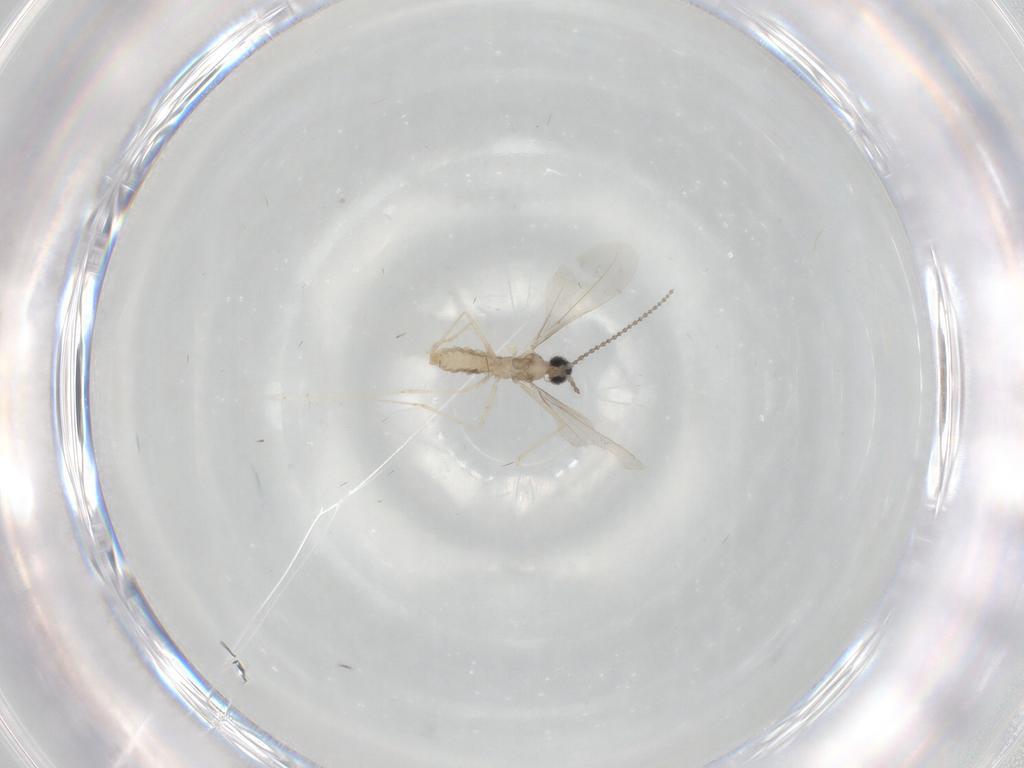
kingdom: Animalia
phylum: Arthropoda
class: Insecta
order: Diptera
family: Cecidomyiidae
